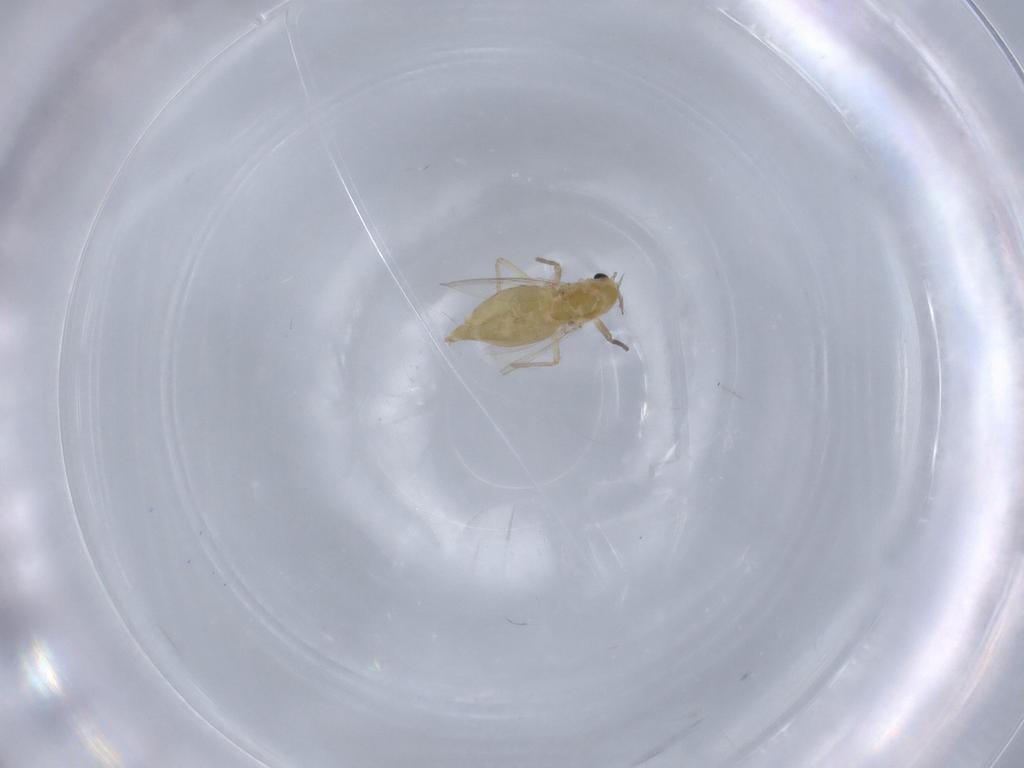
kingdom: Animalia
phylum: Arthropoda
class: Insecta
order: Diptera
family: Chironomidae
